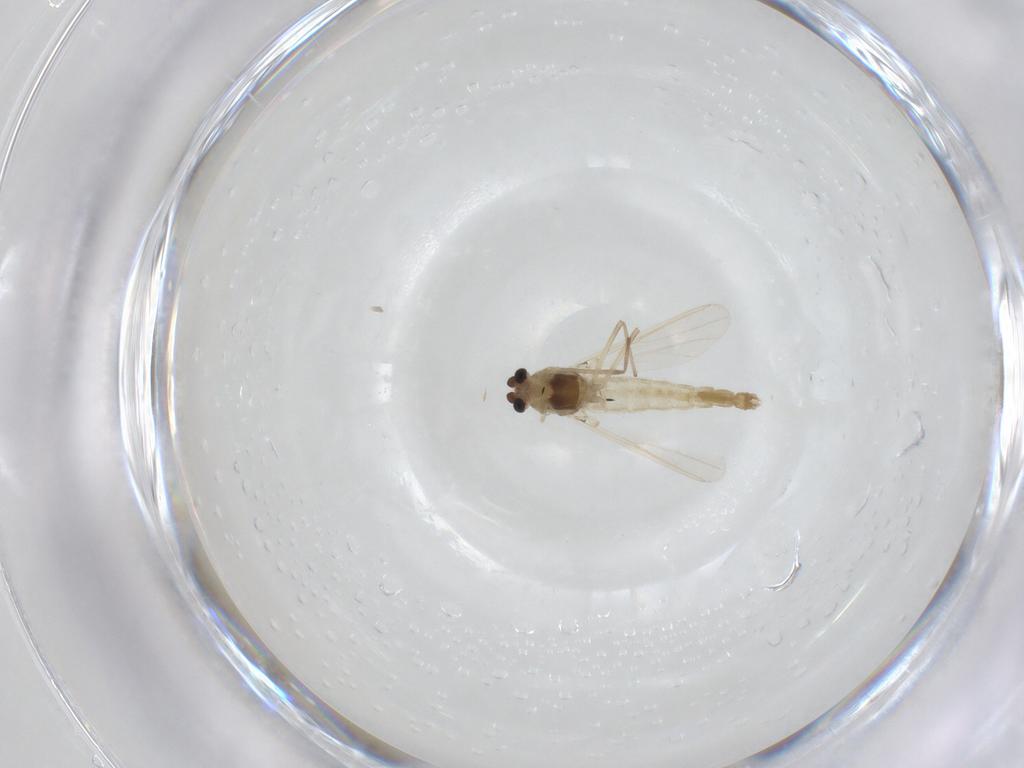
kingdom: Animalia
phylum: Arthropoda
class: Insecta
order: Diptera
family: Chironomidae
